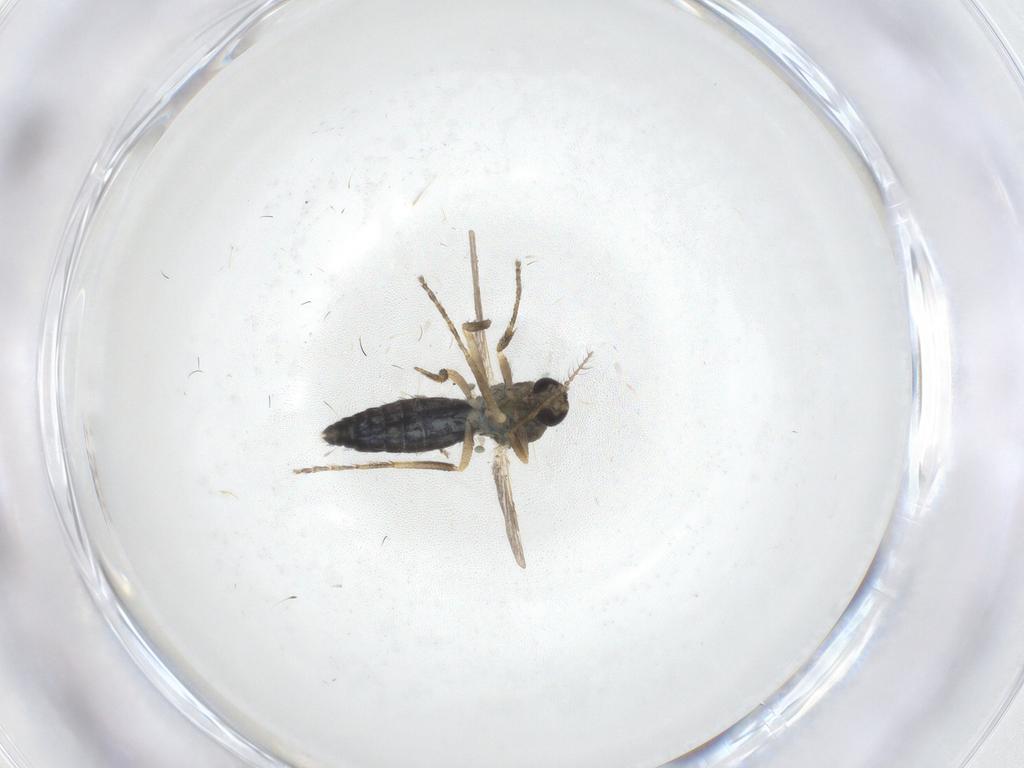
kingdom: Animalia
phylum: Arthropoda
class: Insecta
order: Diptera
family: Ceratopogonidae
